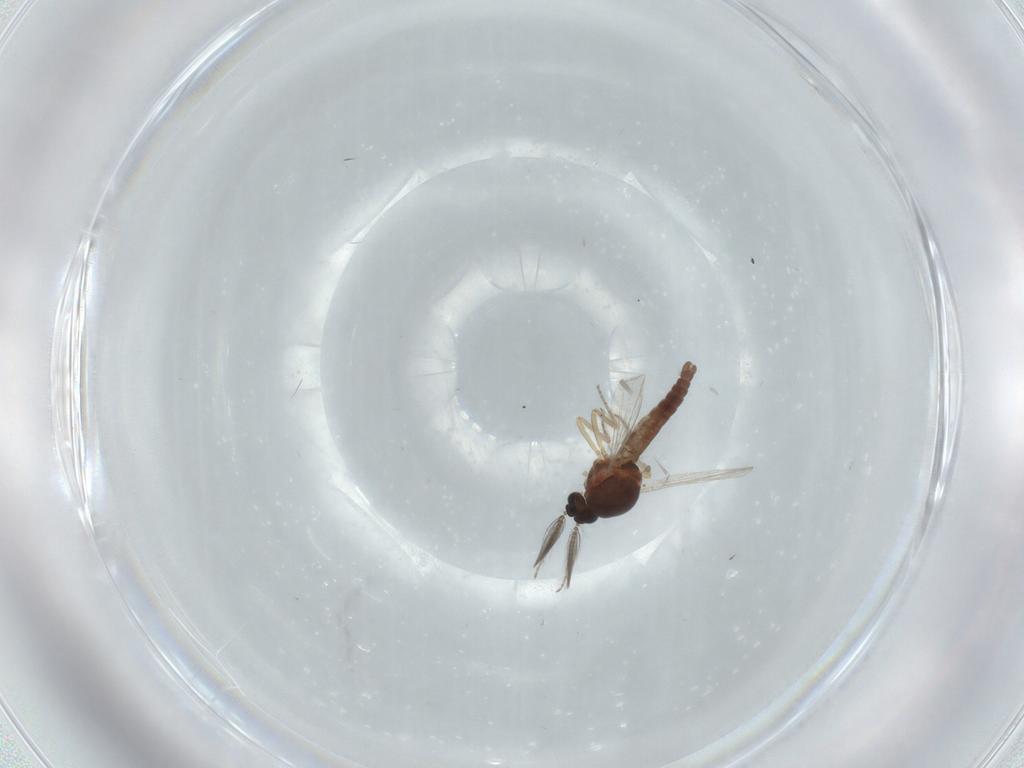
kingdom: Animalia
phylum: Arthropoda
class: Insecta
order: Diptera
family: Ceratopogonidae
